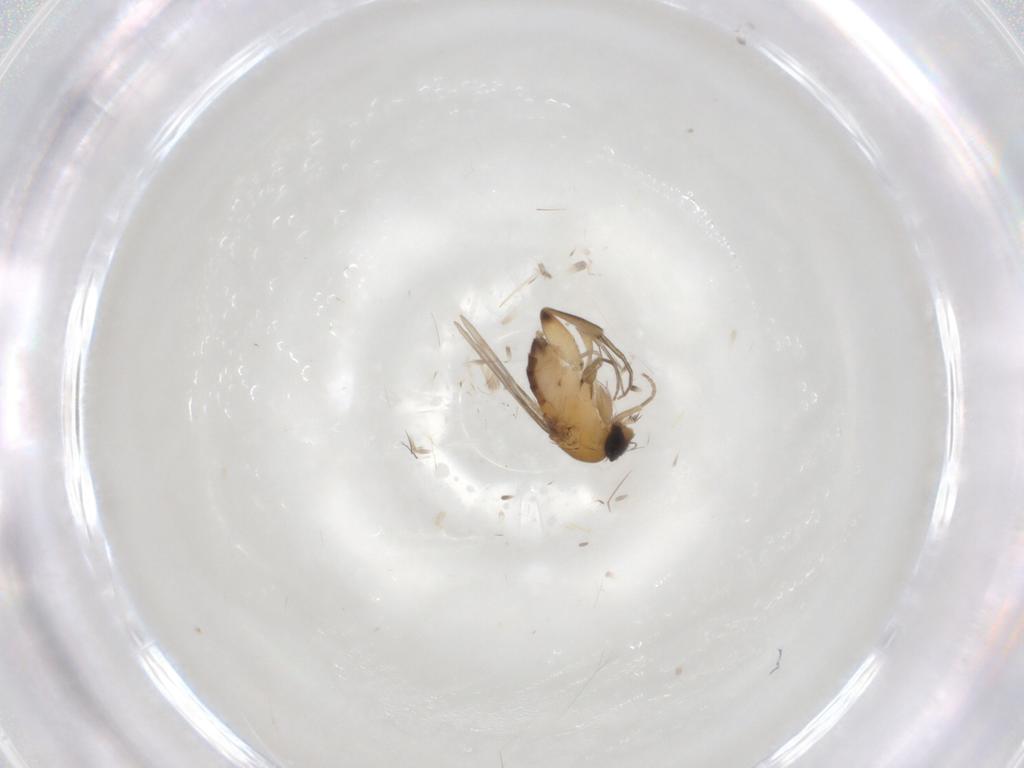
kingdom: Animalia
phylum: Arthropoda
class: Insecta
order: Diptera
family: Phoridae
